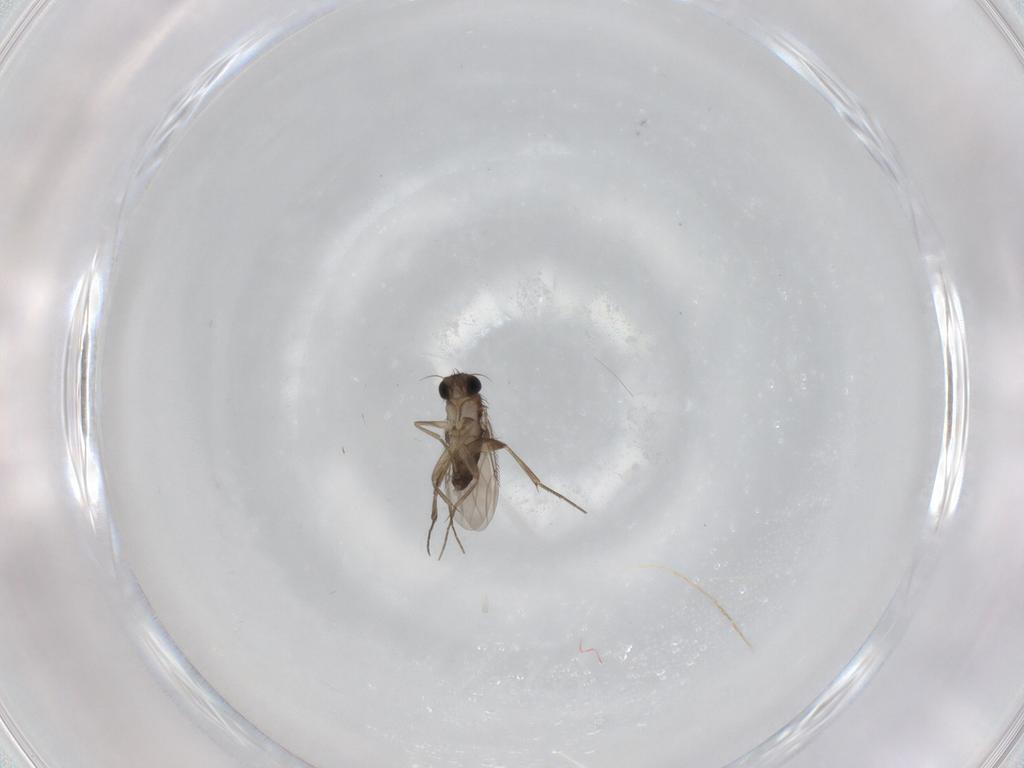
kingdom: Animalia
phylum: Arthropoda
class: Insecta
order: Diptera
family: Phoridae
